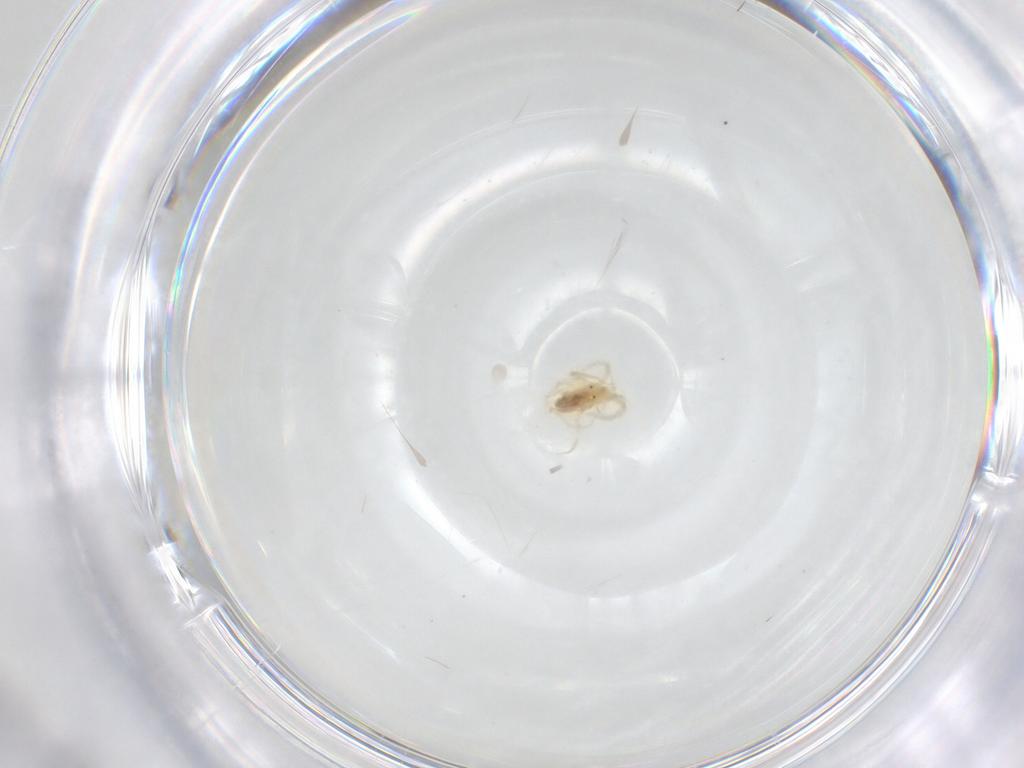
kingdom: Animalia
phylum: Arthropoda
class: Arachnida
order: Trombidiformes
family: Anystidae
